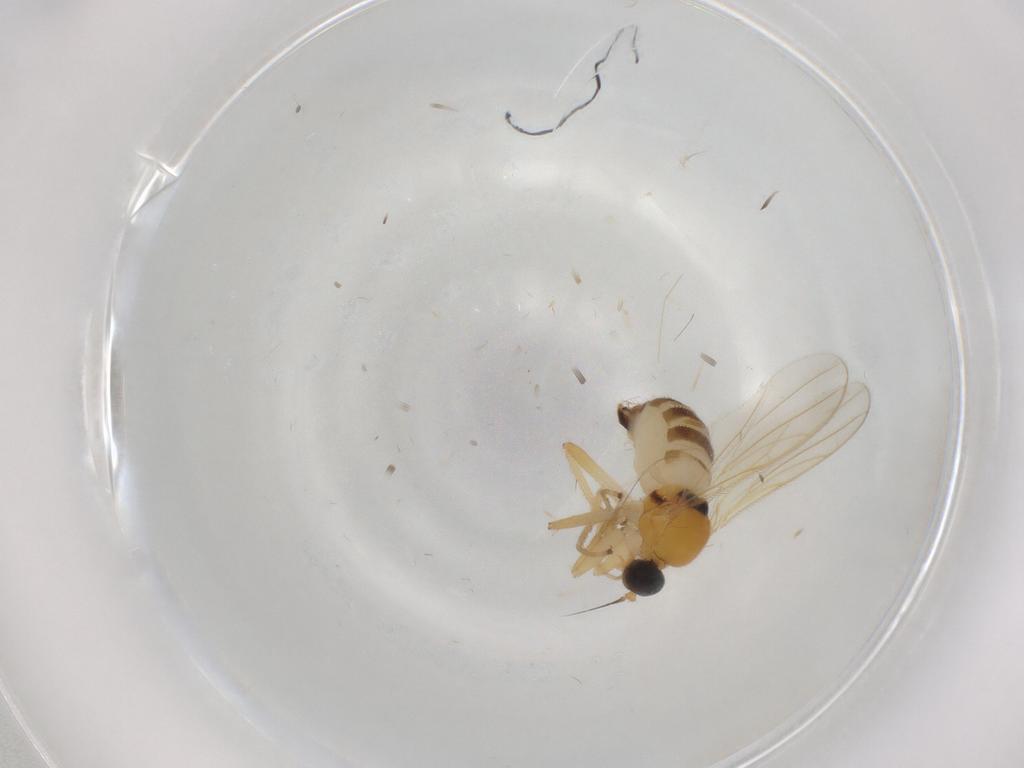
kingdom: Animalia
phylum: Arthropoda
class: Insecta
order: Diptera
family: Hybotidae
